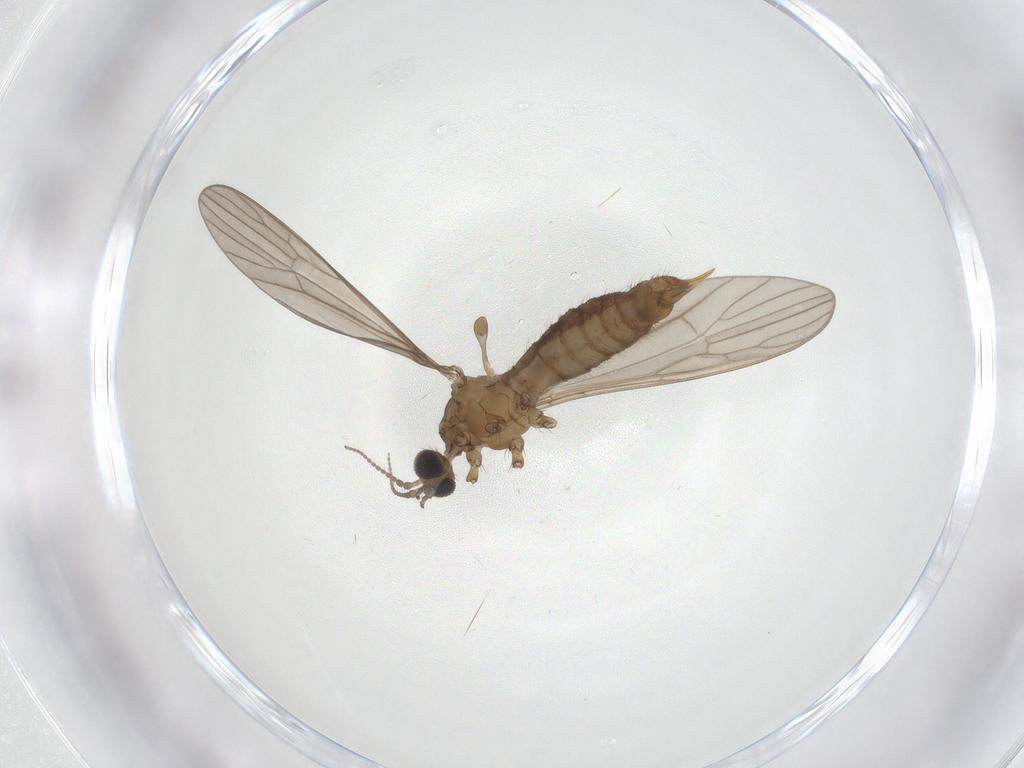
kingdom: Animalia
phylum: Arthropoda
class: Insecta
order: Diptera
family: Limoniidae
